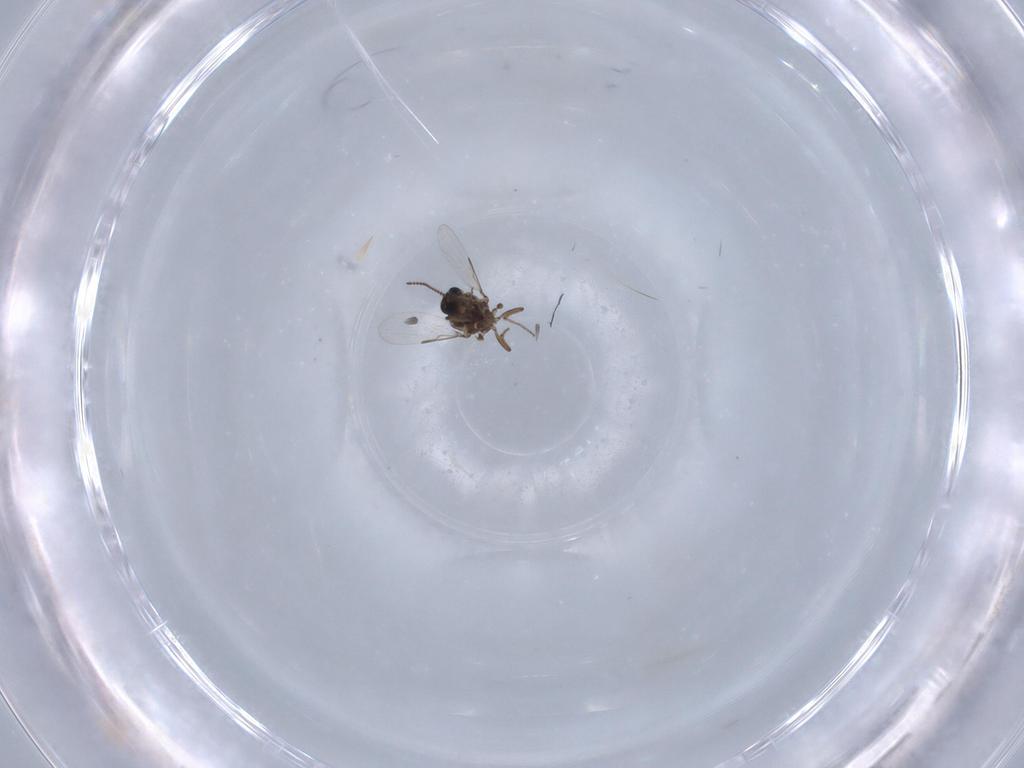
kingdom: Animalia
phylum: Arthropoda
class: Insecta
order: Diptera
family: Ceratopogonidae
